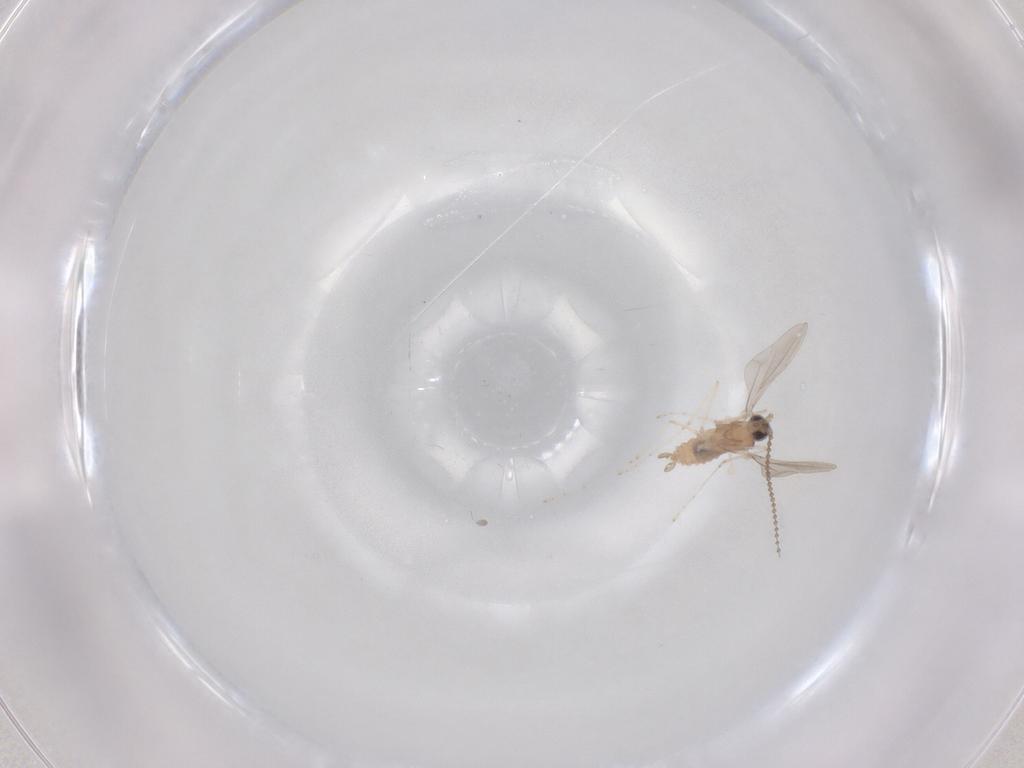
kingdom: Animalia
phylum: Arthropoda
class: Insecta
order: Diptera
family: Cecidomyiidae
